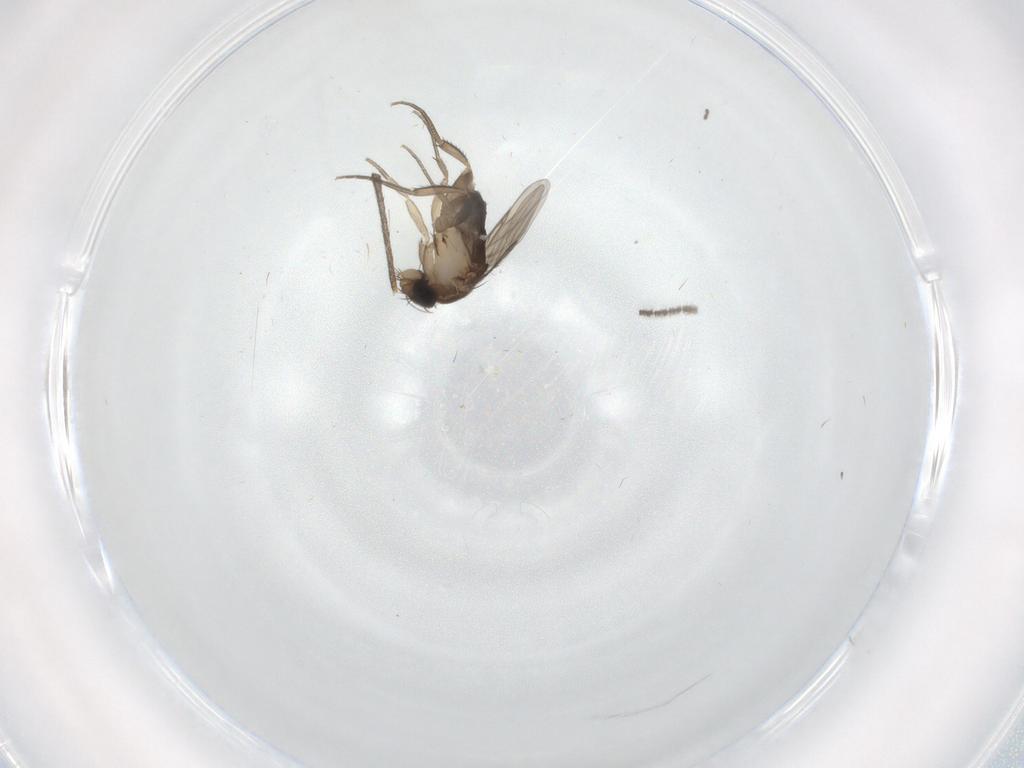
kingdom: Animalia
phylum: Arthropoda
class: Insecta
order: Diptera
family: Phoridae
